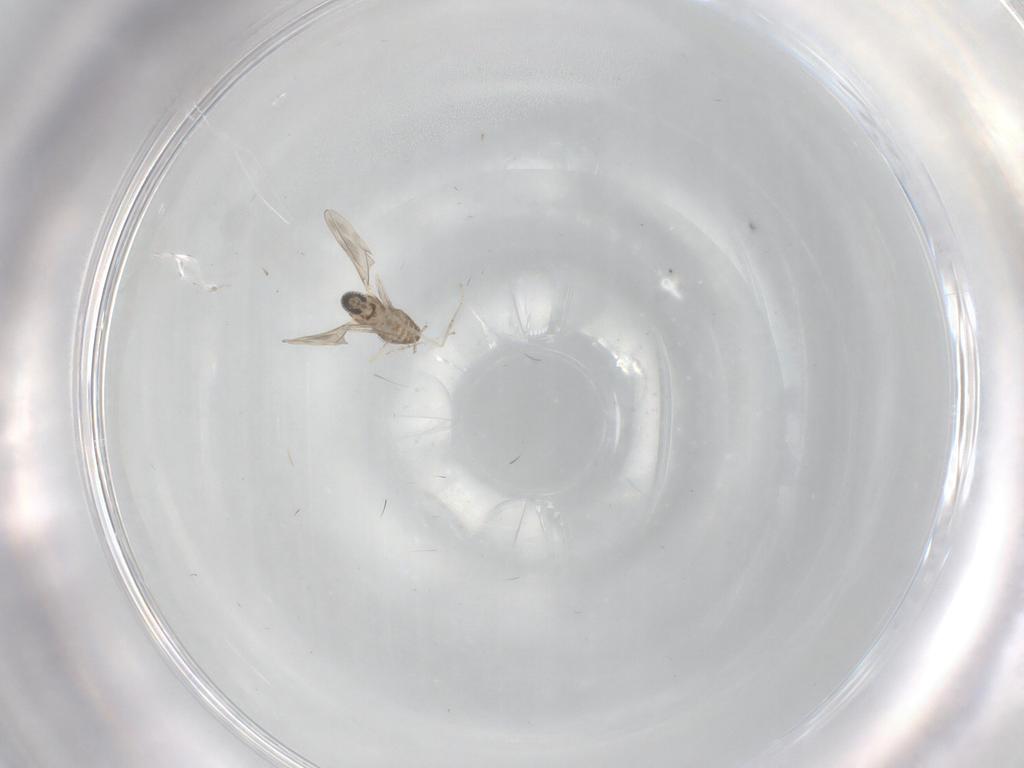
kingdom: Animalia
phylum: Arthropoda
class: Insecta
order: Diptera
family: Cecidomyiidae
